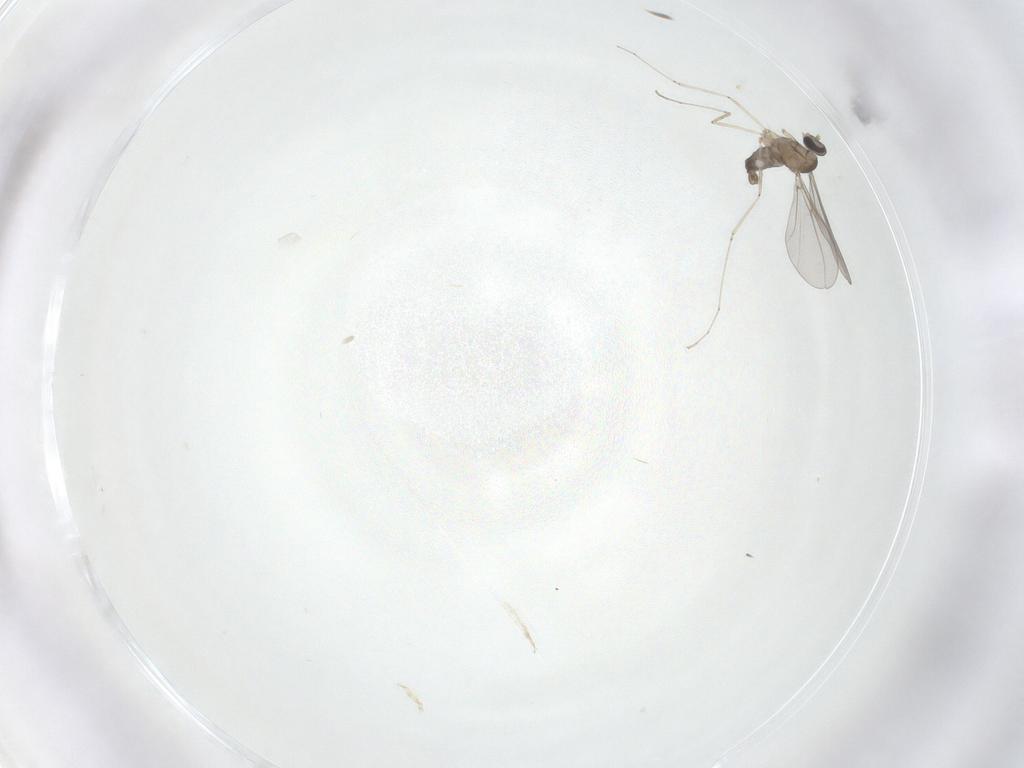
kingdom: Animalia
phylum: Arthropoda
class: Insecta
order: Diptera
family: Cecidomyiidae
